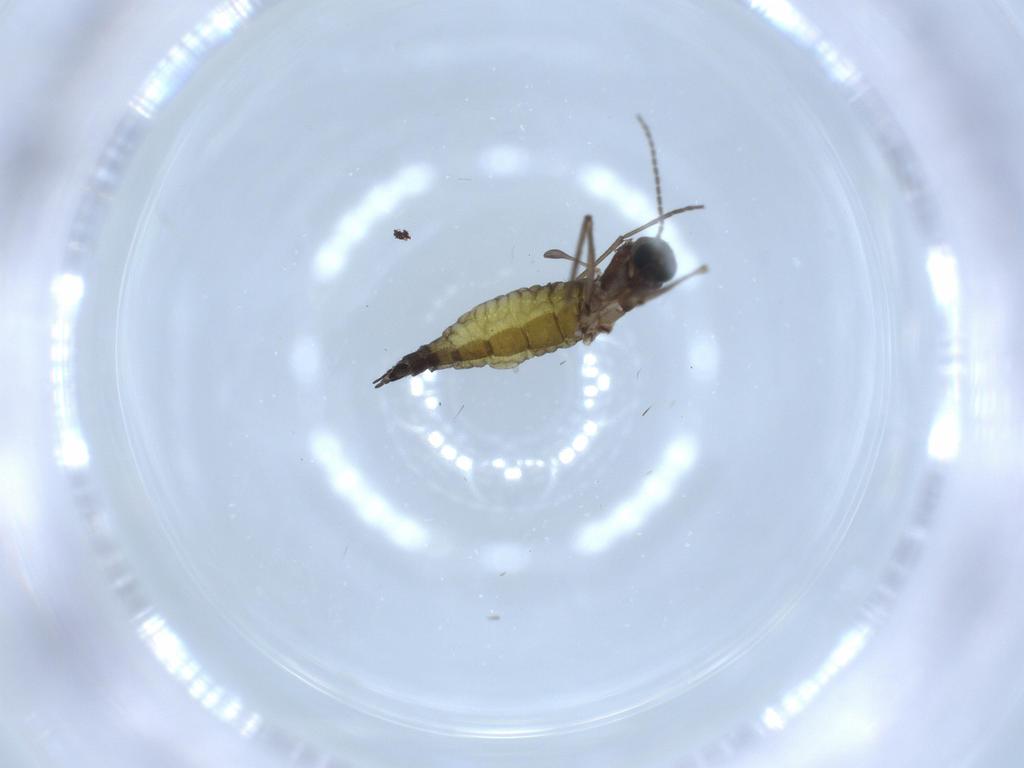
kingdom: Animalia
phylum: Arthropoda
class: Insecta
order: Diptera
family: Sciaridae
